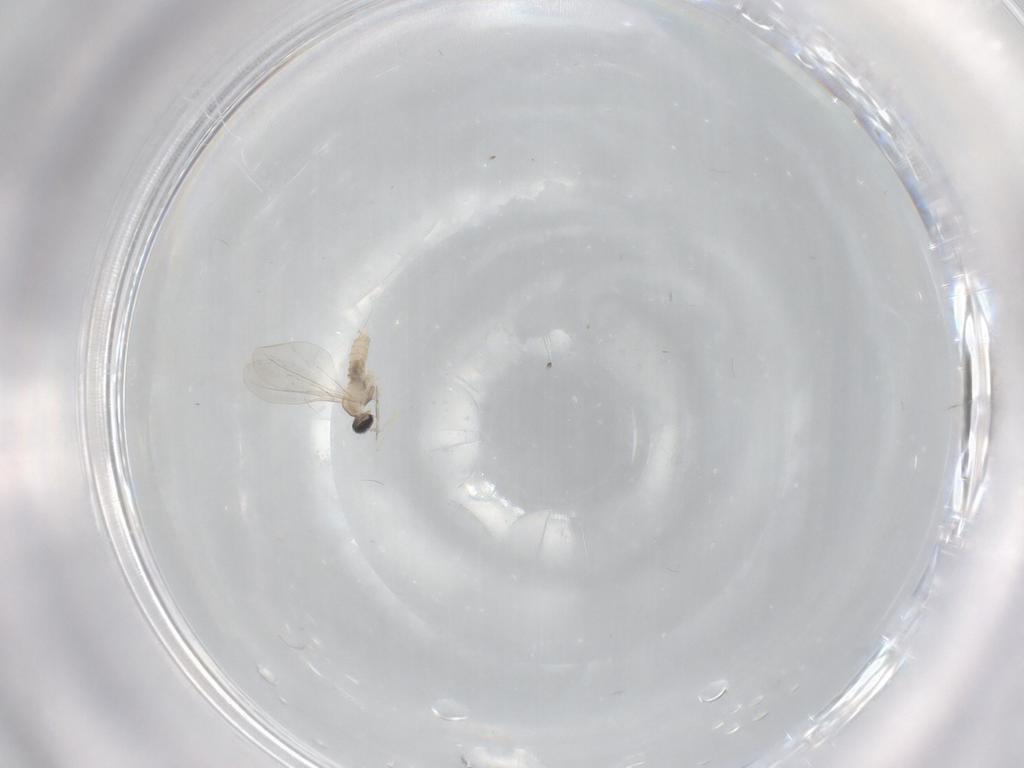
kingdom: Animalia
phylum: Arthropoda
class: Insecta
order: Diptera
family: Cecidomyiidae
